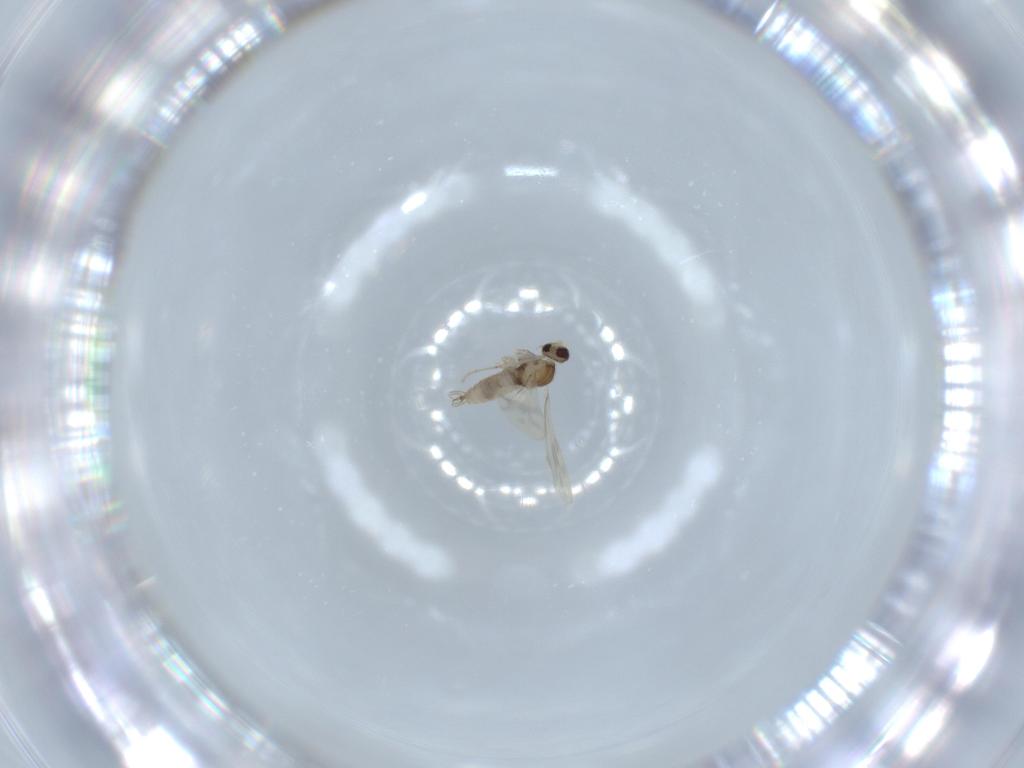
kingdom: Animalia
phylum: Arthropoda
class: Insecta
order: Diptera
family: Cecidomyiidae
